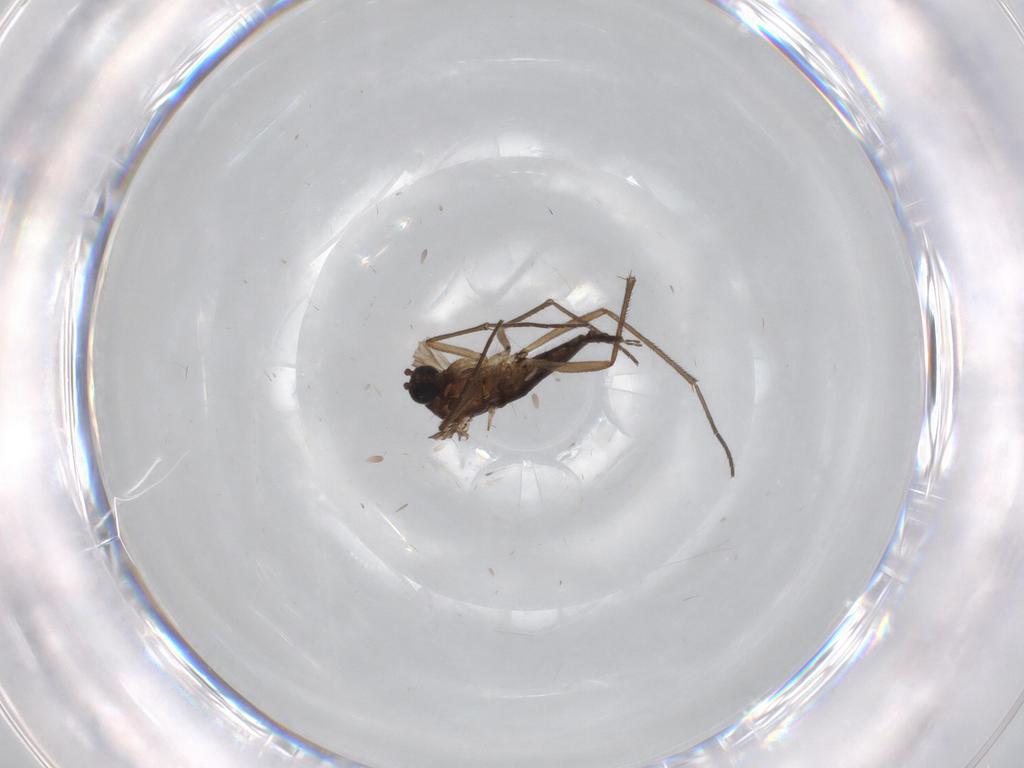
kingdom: Animalia
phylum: Arthropoda
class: Insecta
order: Diptera
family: Sciaridae
